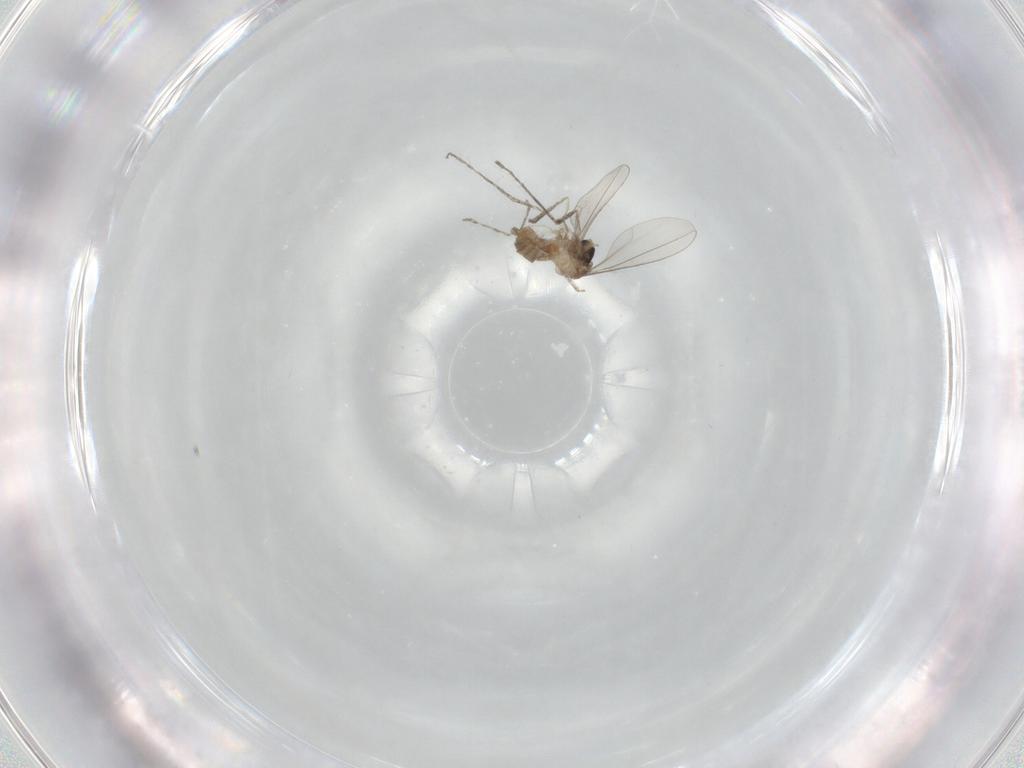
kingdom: Animalia
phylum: Arthropoda
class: Insecta
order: Diptera
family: Cecidomyiidae
